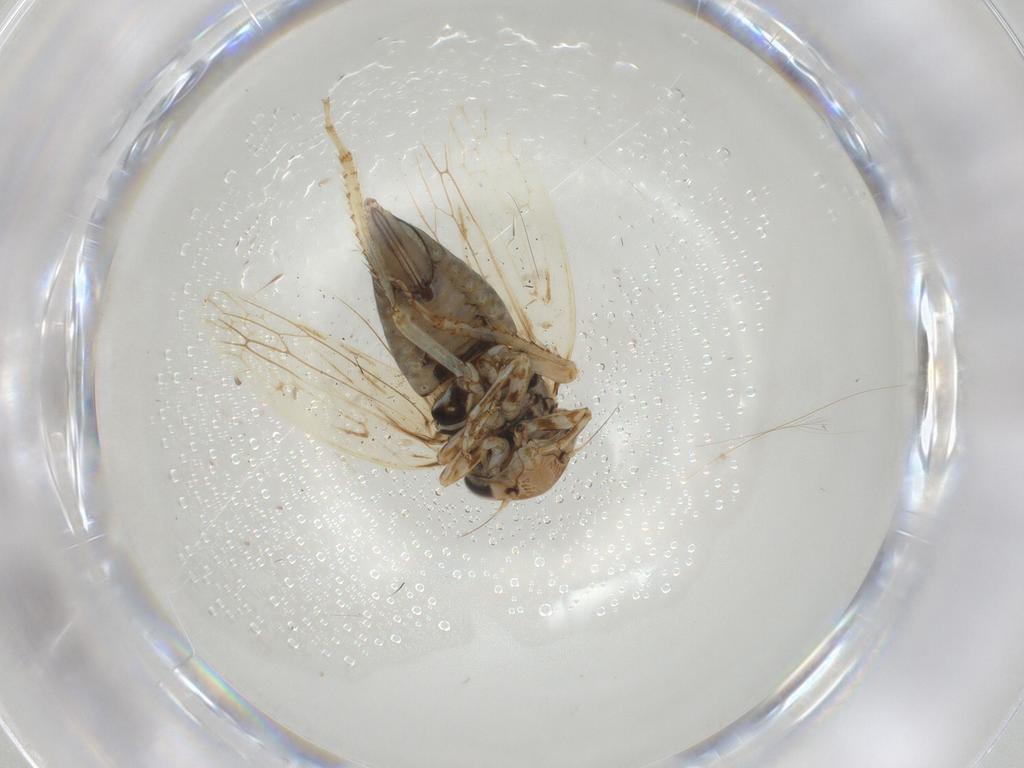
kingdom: Animalia
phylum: Arthropoda
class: Insecta
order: Hemiptera
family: Cicadellidae
